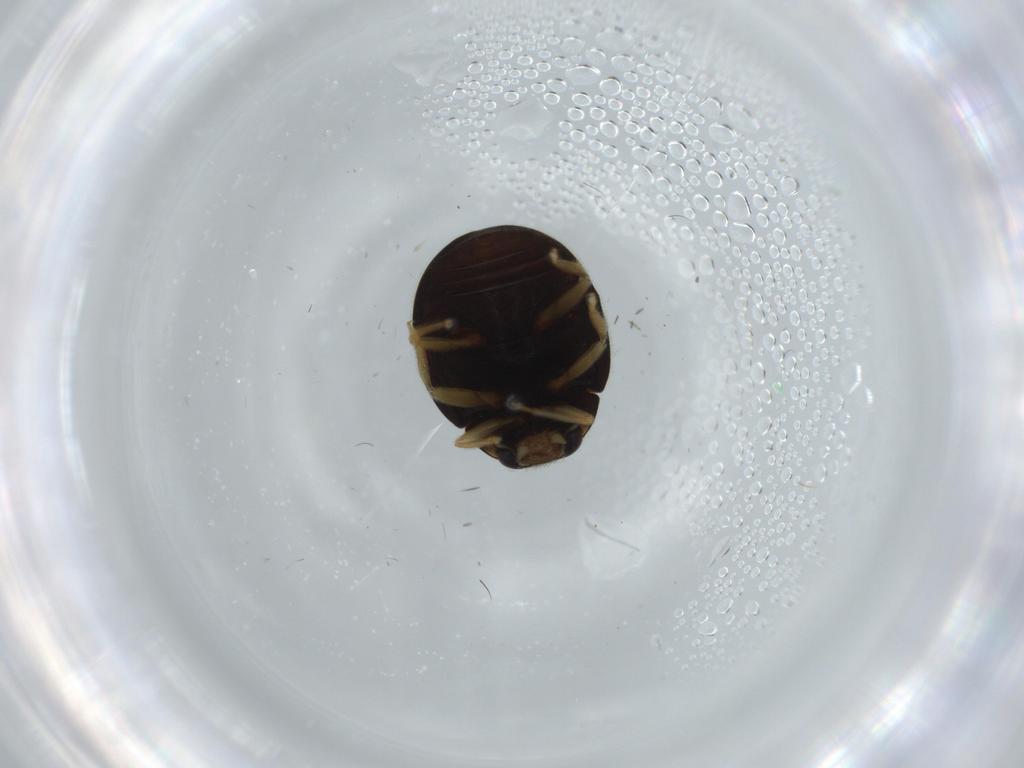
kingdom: Animalia
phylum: Arthropoda
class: Insecta
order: Coleoptera
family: Coccinellidae
